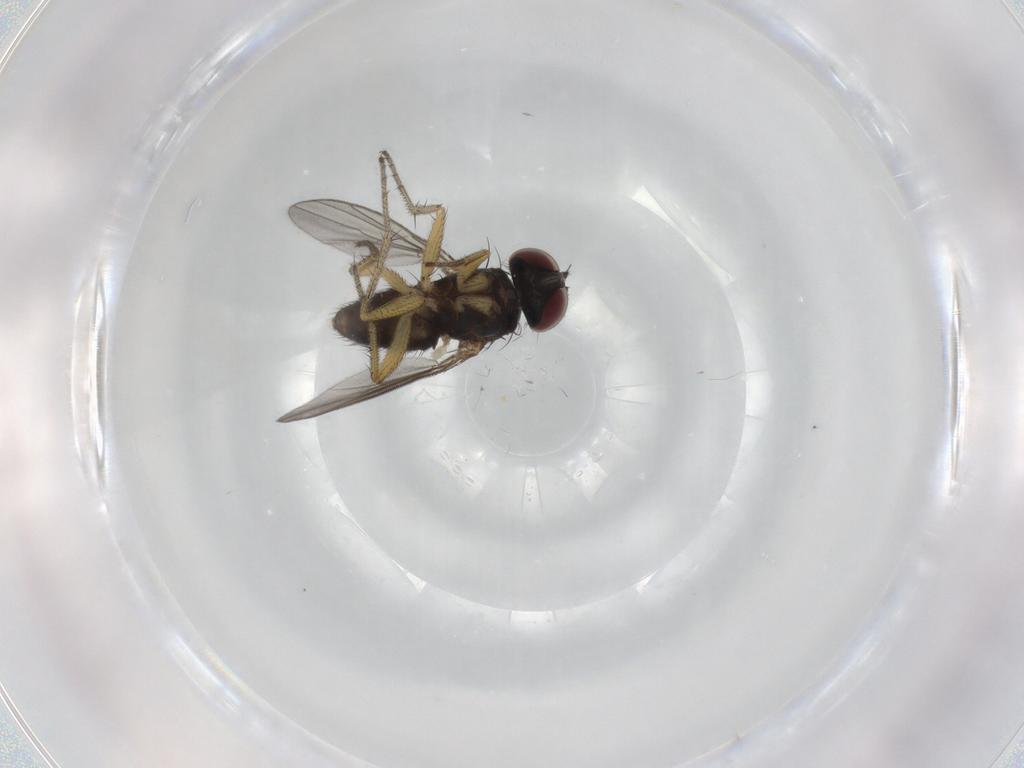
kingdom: Animalia
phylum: Arthropoda
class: Insecta
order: Diptera
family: Dolichopodidae
